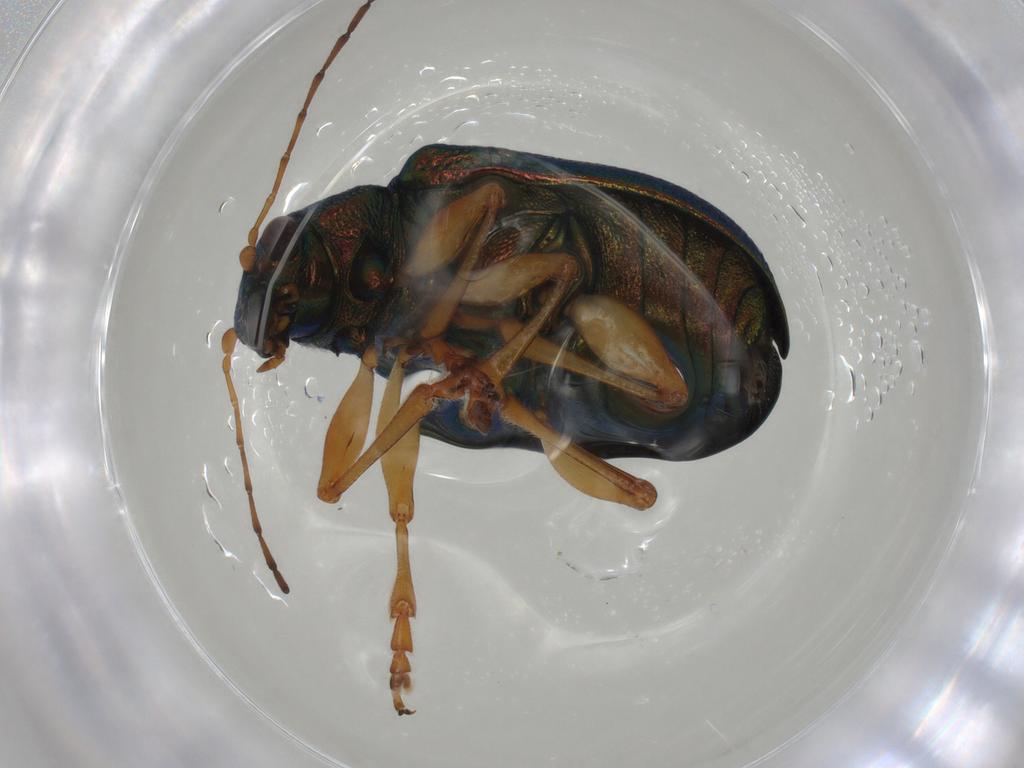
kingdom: Animalia
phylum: Arthropoda
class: Insecta
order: Coleoptera
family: Chrysomelidae
